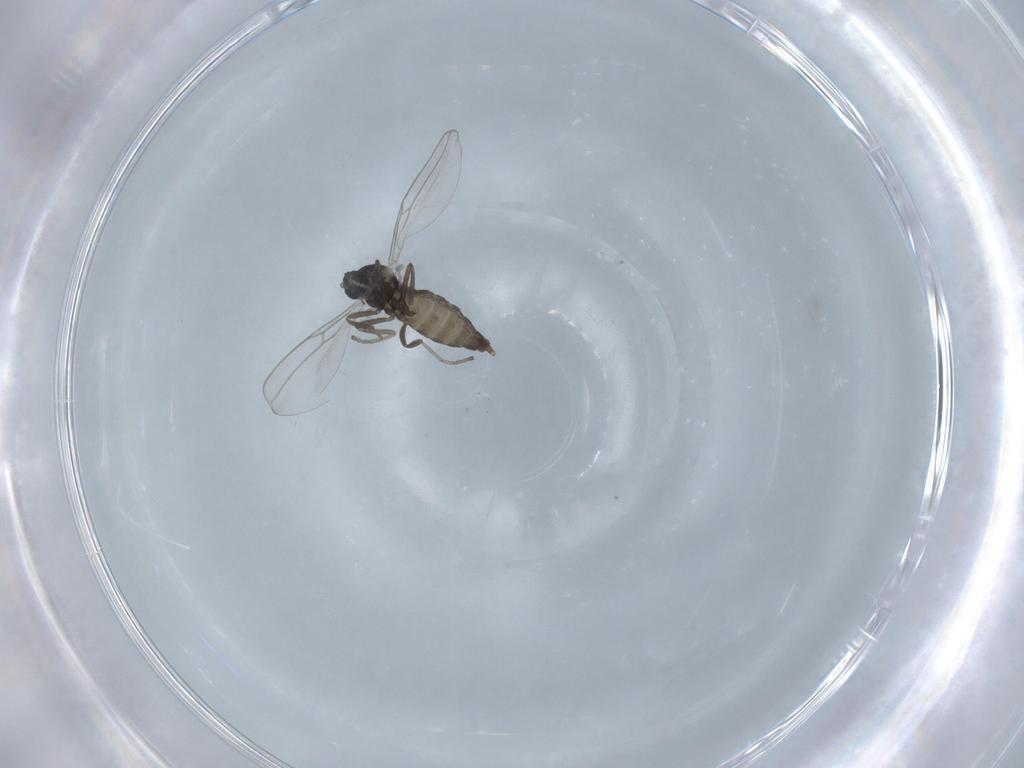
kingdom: Animalia
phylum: Arthropoda
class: Insecta
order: Diptera
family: Cecidomyiidae
